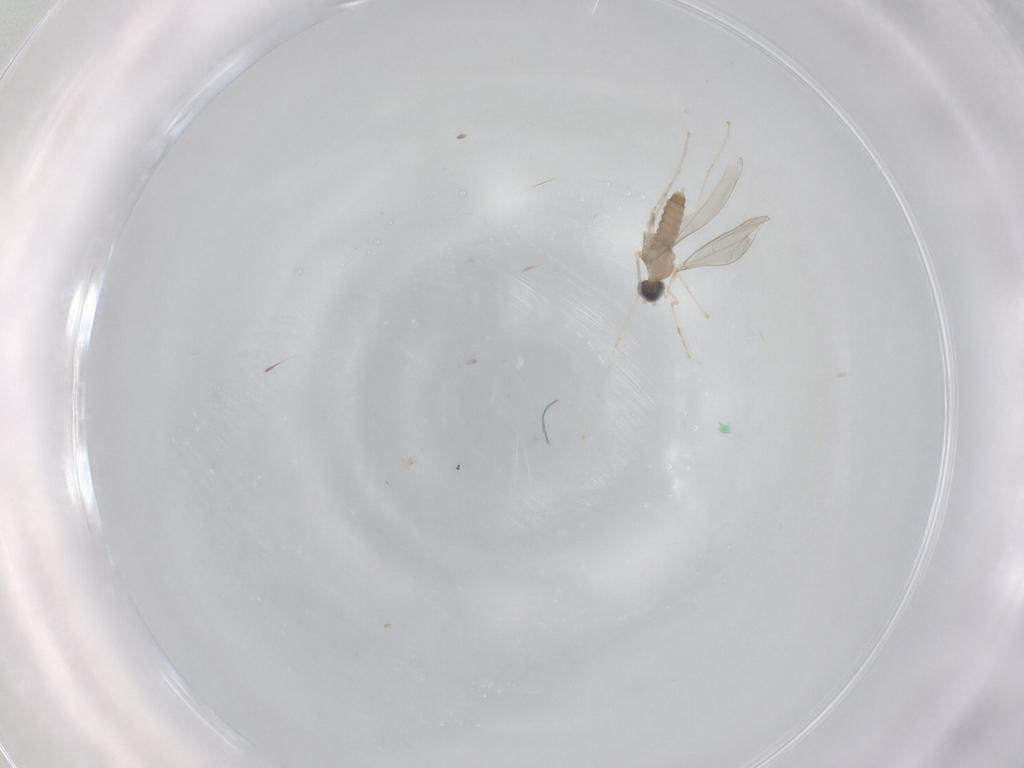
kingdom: Animalia
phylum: Arthropoda
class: Insecta
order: Diptera
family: Cecidomyiidae
